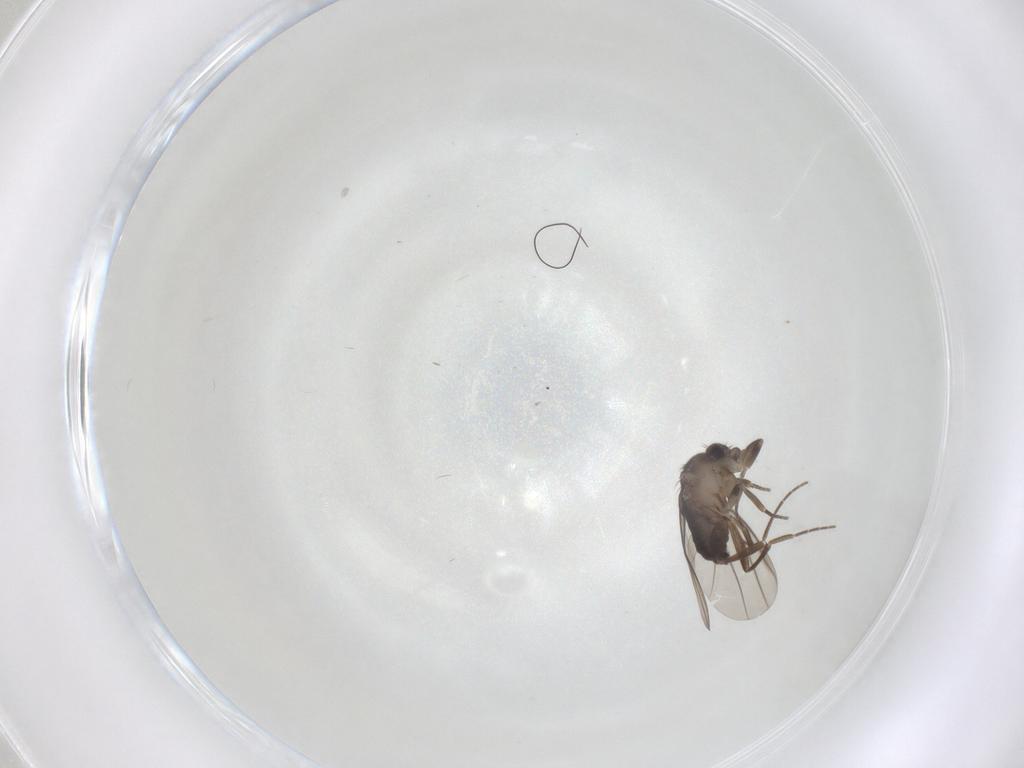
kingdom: Animalia
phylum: Arthropoda
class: Insecta
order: Diptera
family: Phoridae
